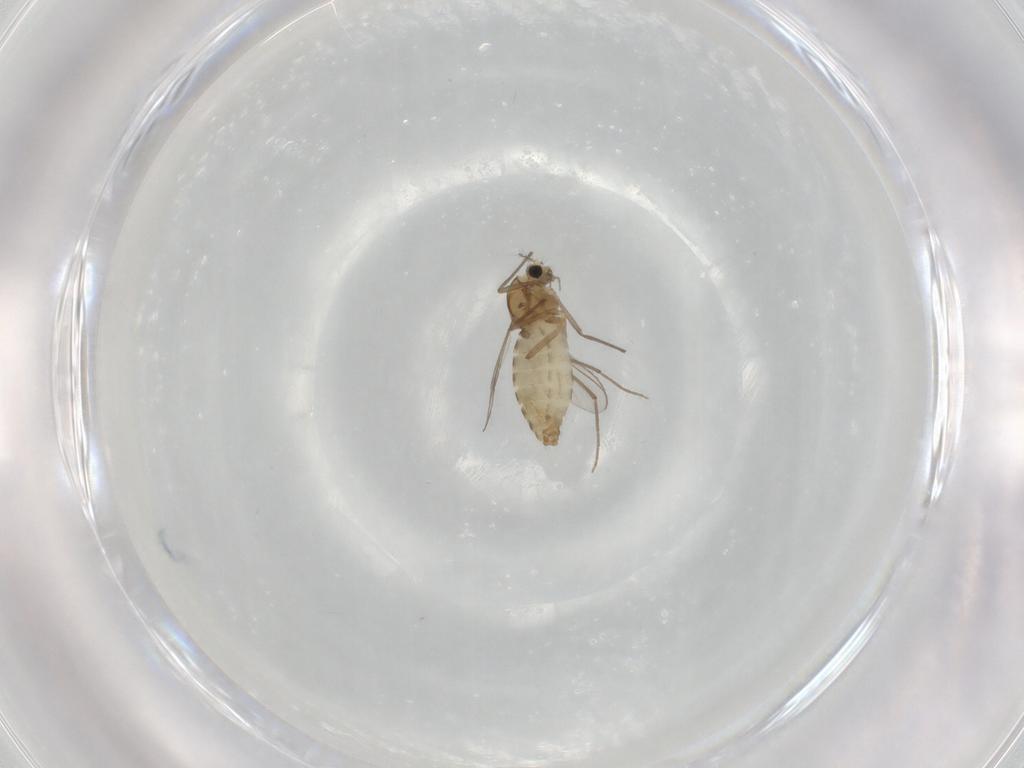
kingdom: Animalia
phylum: Arthropoda
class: Insecta
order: Diptera
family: Chironomidae
